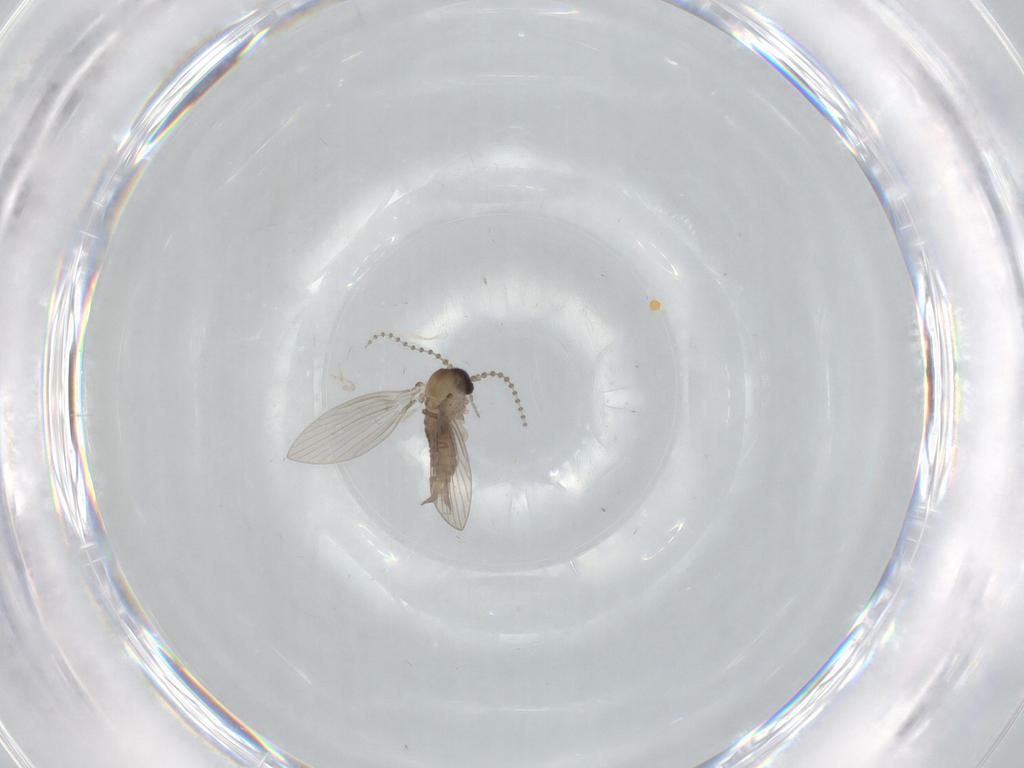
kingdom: Animalia
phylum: Arthropoda
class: Insecta
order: Diptera
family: Psychodidae
